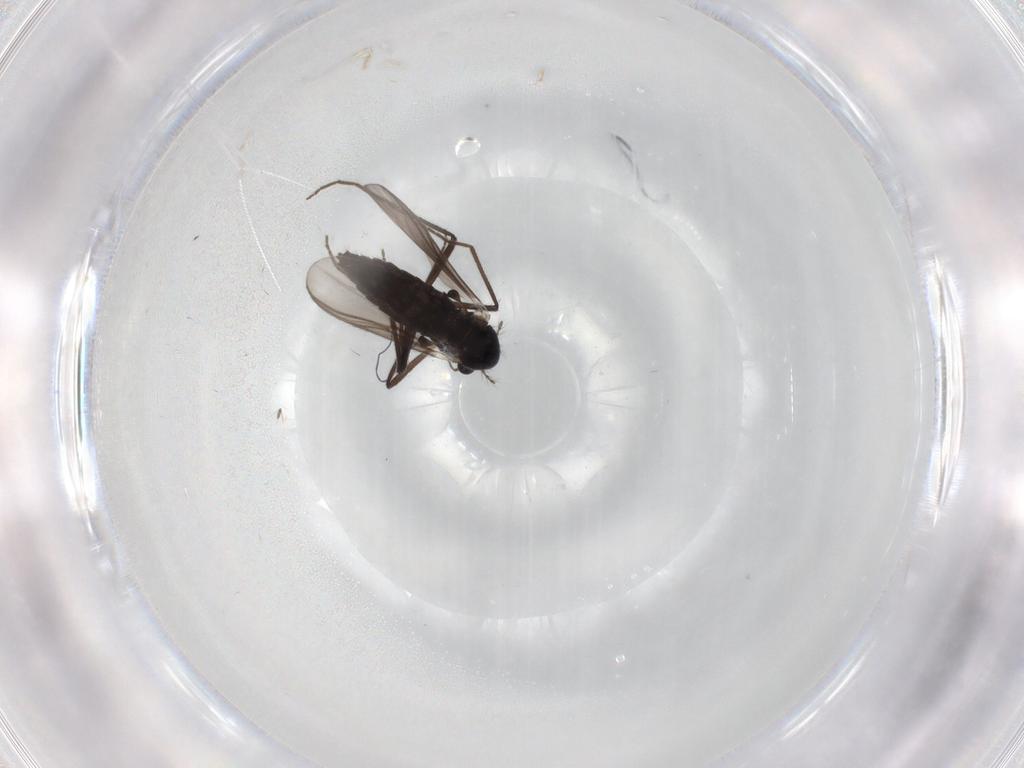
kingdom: Animalia
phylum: Arthropoda
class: Insecta
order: Diptera
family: Chironomidae
